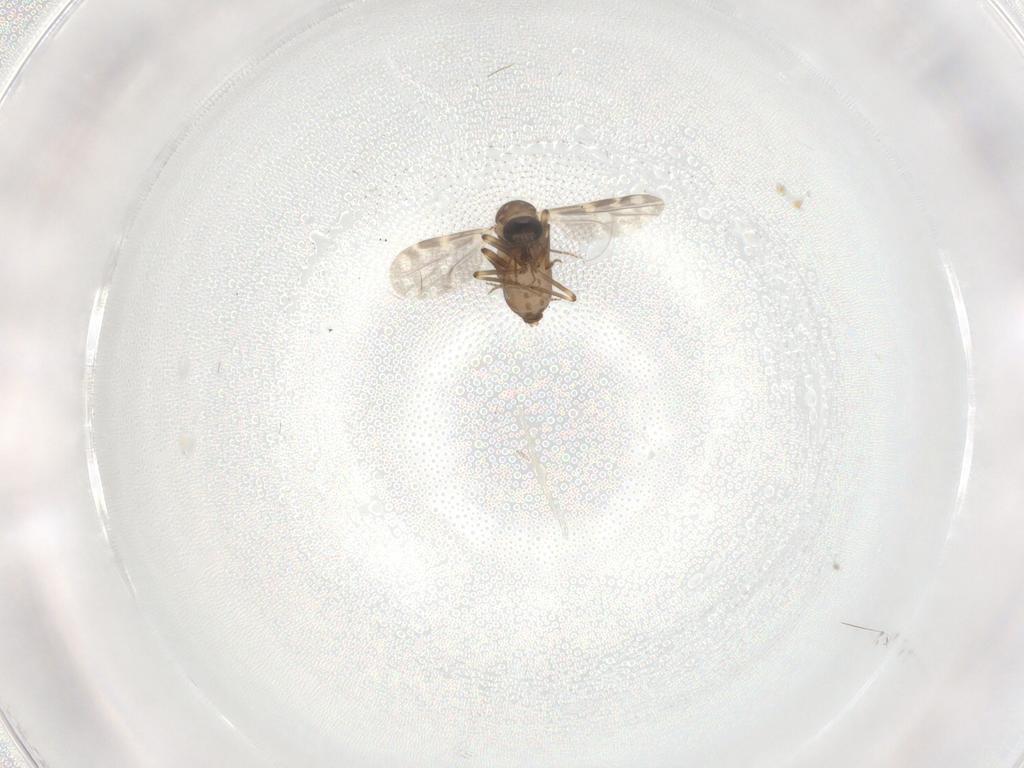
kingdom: Animalia
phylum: Arthropoda
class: Insecta
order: Diptera
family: Ceratopogonidae
